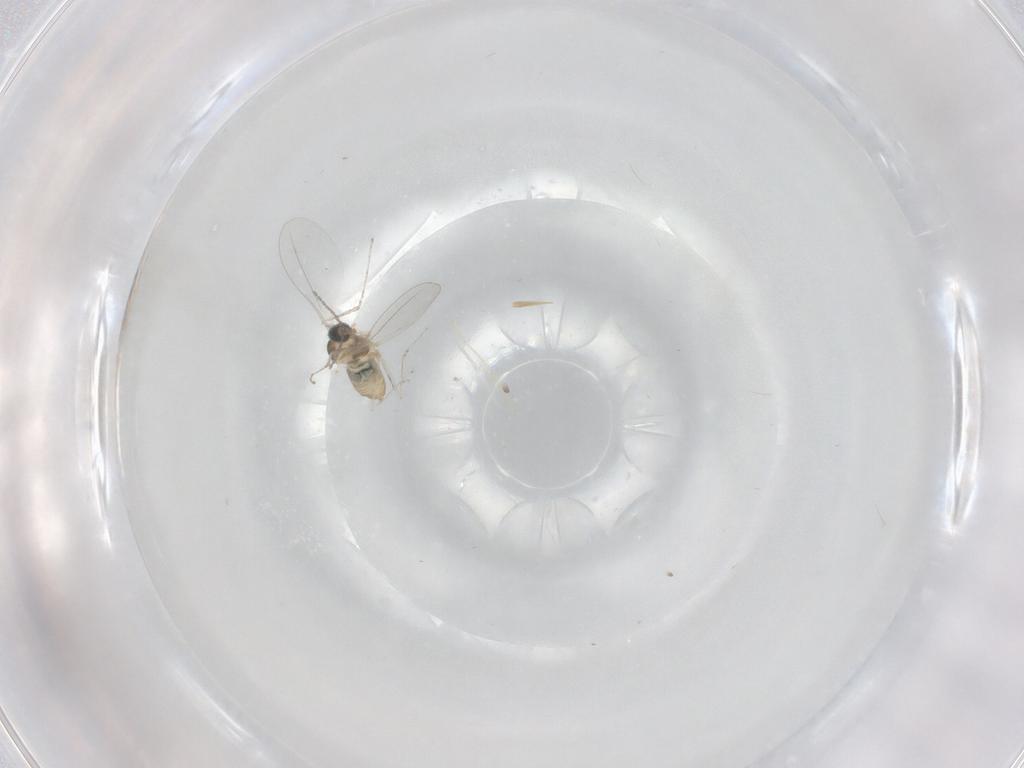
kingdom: Animalia
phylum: Arthropoda
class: Insecta
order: Diptera
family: Cecidomyiidae
